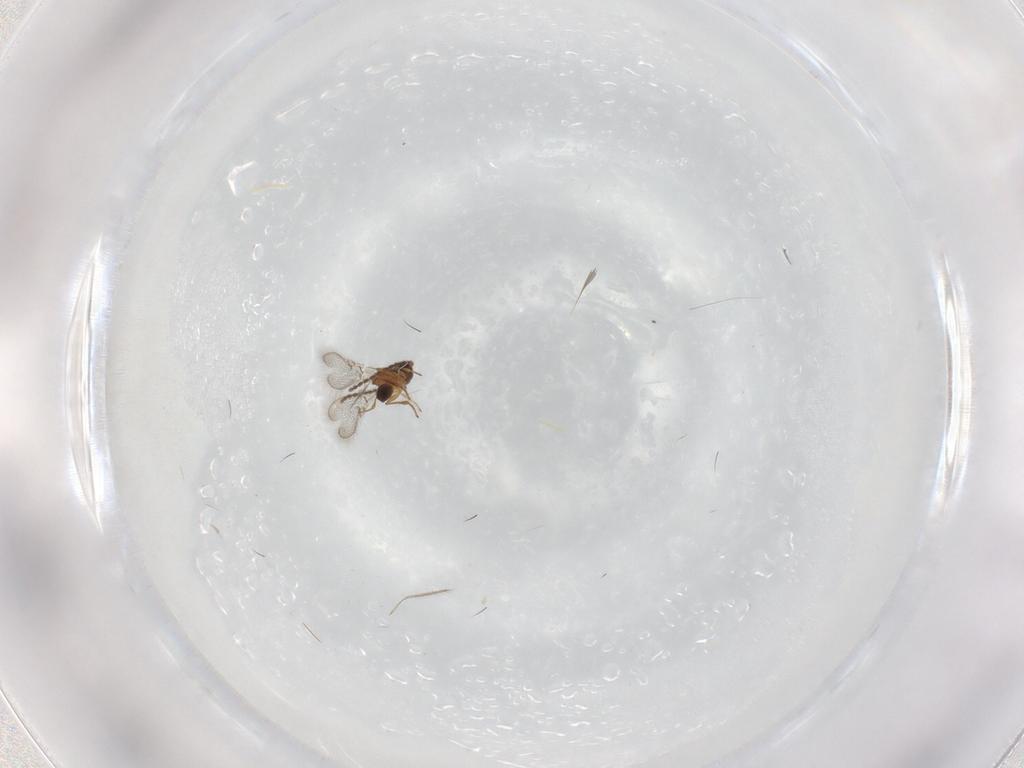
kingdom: Animalia
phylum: Arthropoda
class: Insecta
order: Hymenoptera
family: Figitidae
